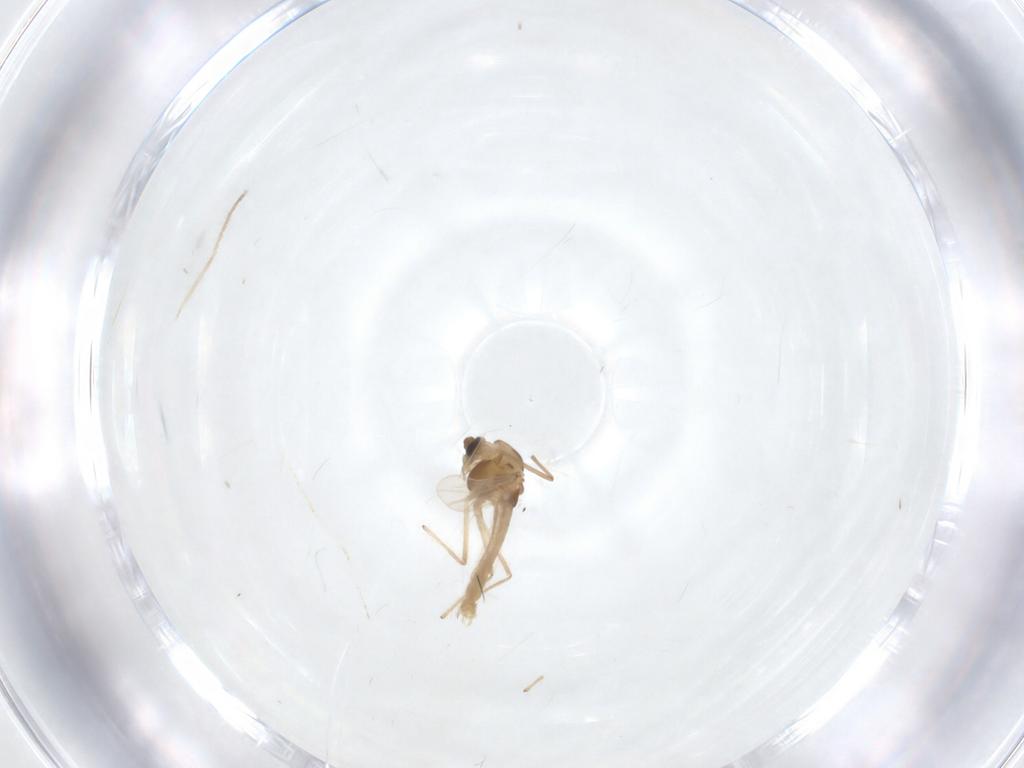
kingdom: Animalia
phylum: Arthropoda
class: Insecta
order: Diptera
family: Chironomidae
